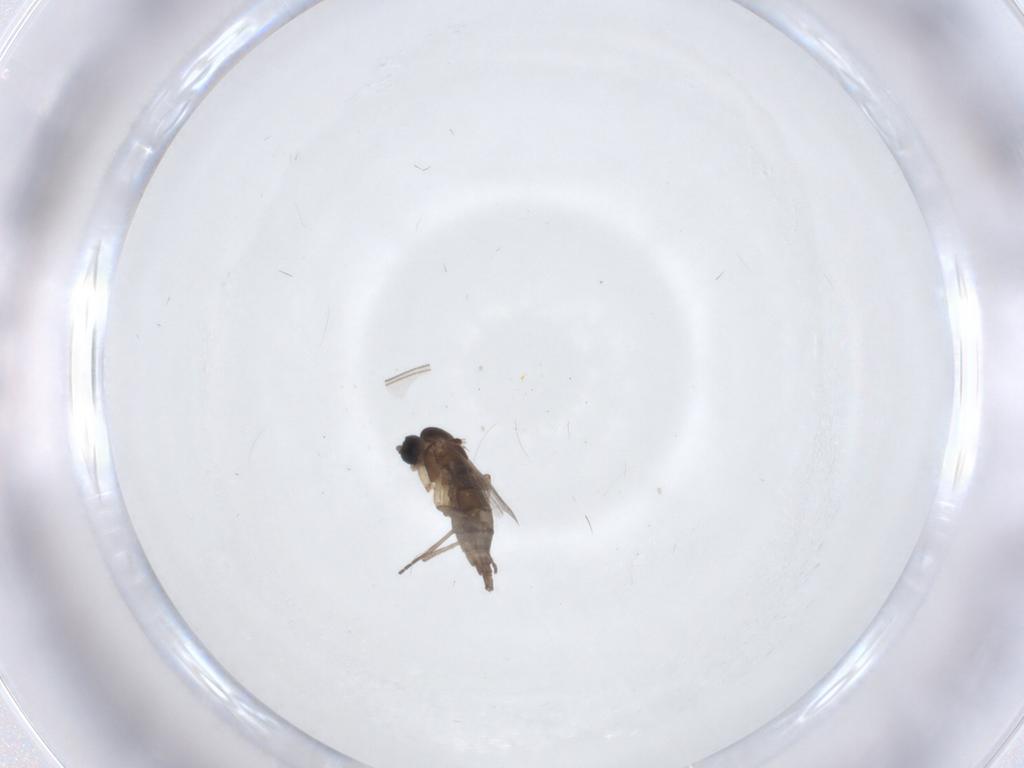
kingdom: Animalia
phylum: Arthropoda
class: Insecta
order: Diptera
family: Sciaridae
